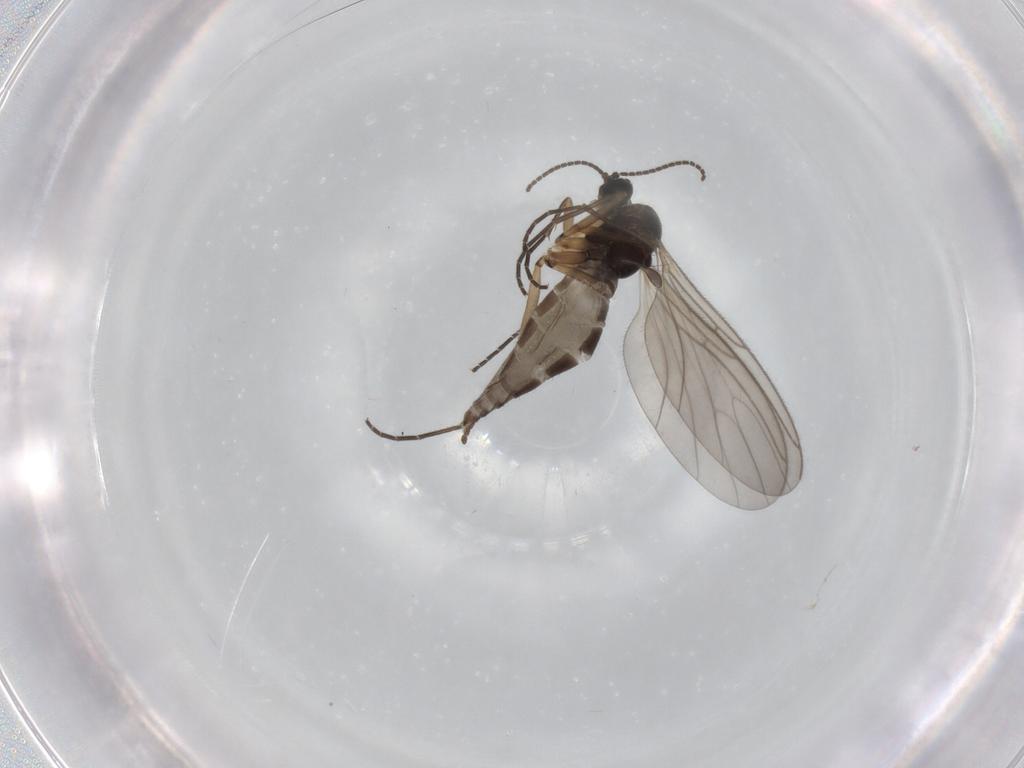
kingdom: Animalia
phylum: Arthropoda
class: Insecta
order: Diptera
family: Sciaridae
